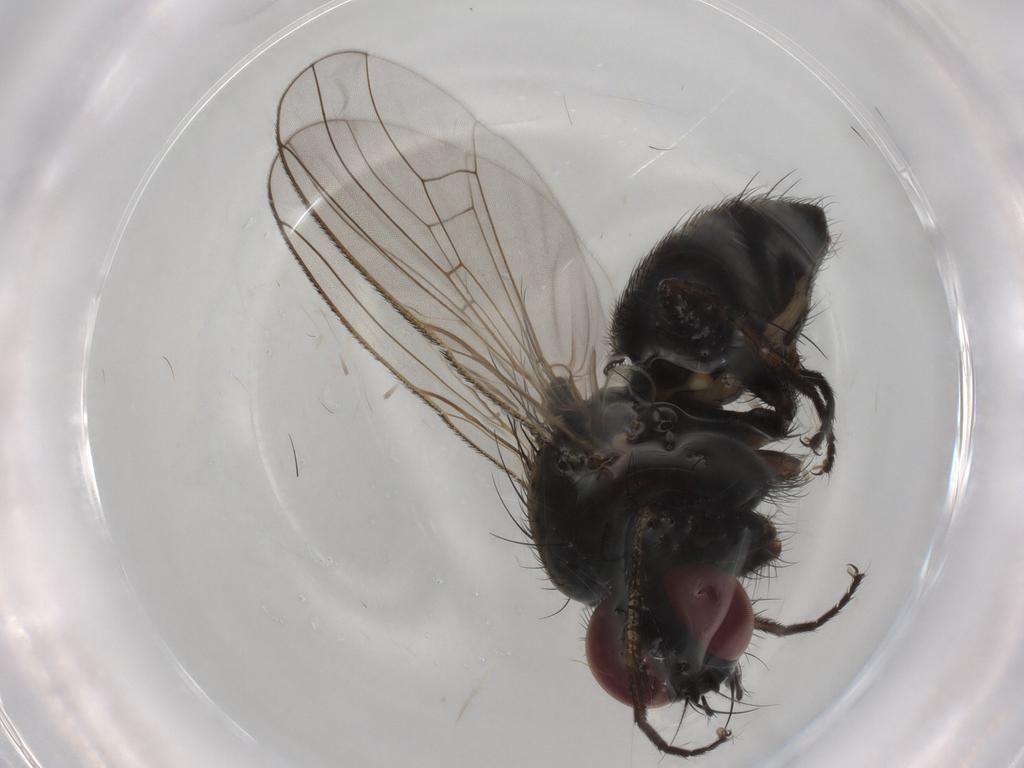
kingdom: Animalia
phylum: Arthropoda
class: Insecta
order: Diptera
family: Muscidae
